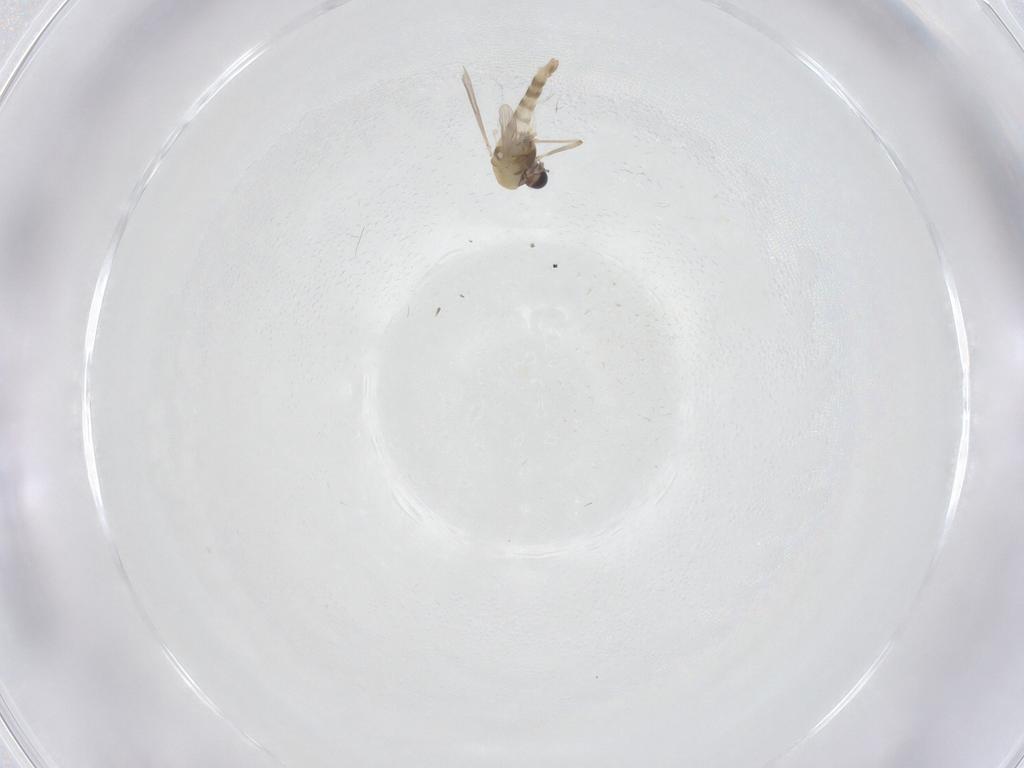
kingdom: Animalia
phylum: Arthropoda
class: Insecta
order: Diptera
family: Chironomidae
